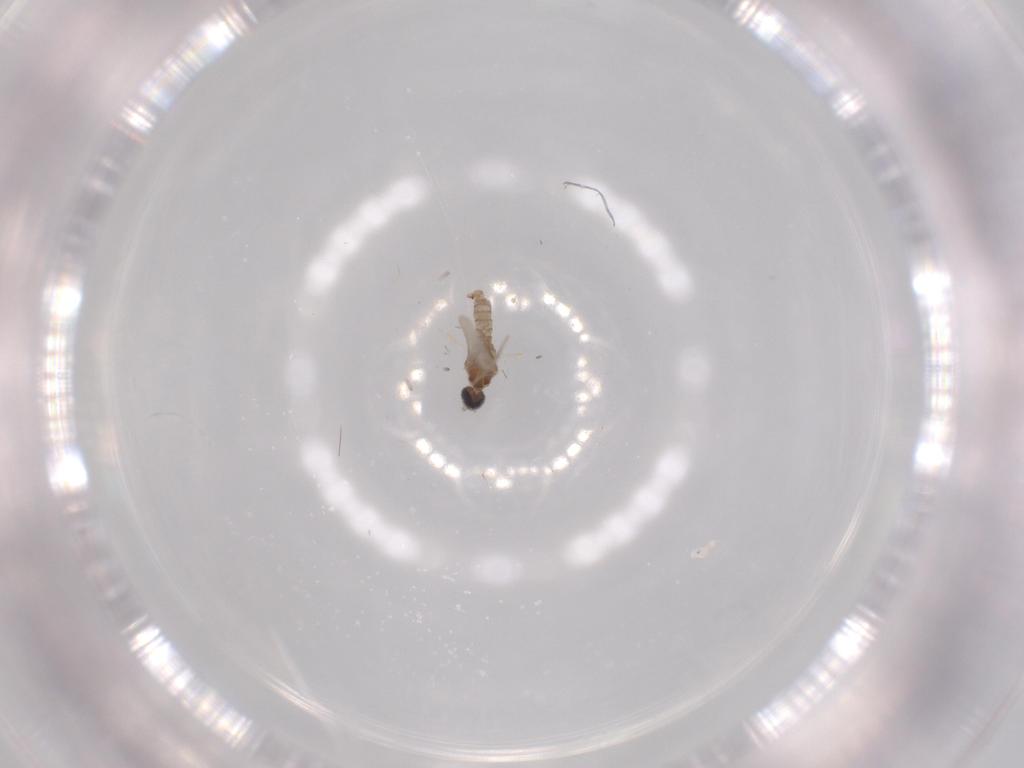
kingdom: Animalia
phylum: Arthropoda
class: Insecta
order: Diptera
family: Cecidomyiidae
